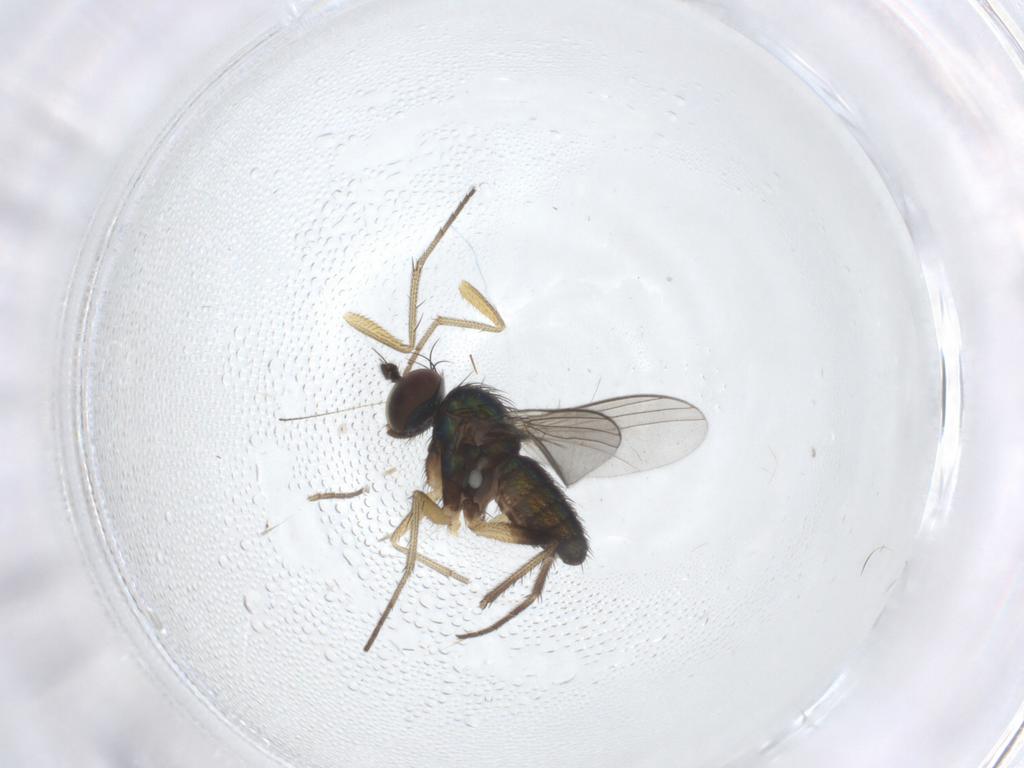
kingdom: Animalia
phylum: Arthropoda
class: Insecta
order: Diptera
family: Dolichopodidae
